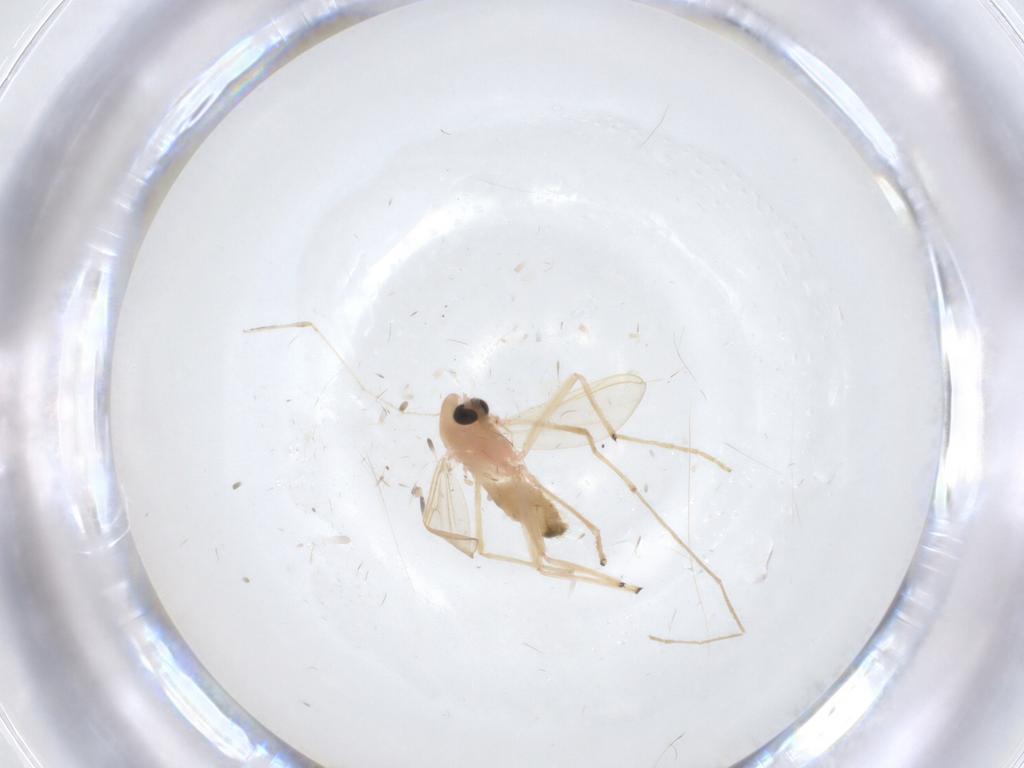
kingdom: Animalia
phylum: Arthropoda
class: Insecta
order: Diptera
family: Chironomidae
